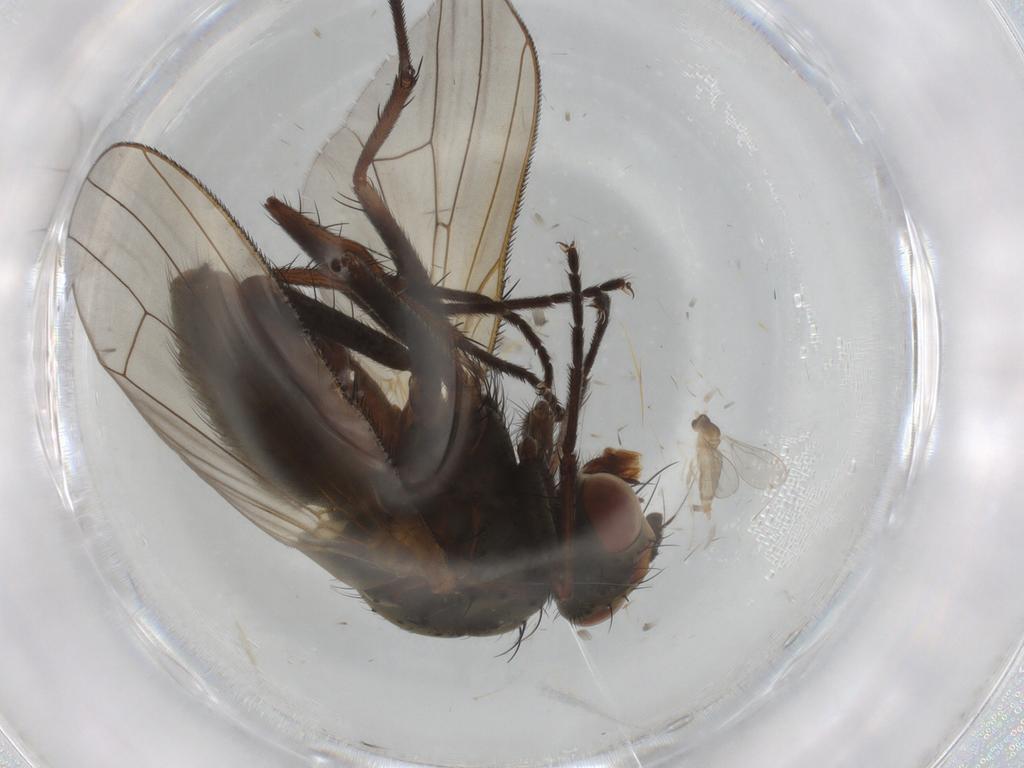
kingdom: Animalia
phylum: Arthropoda
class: Insecta
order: Diptera
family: Anthomyiidae
